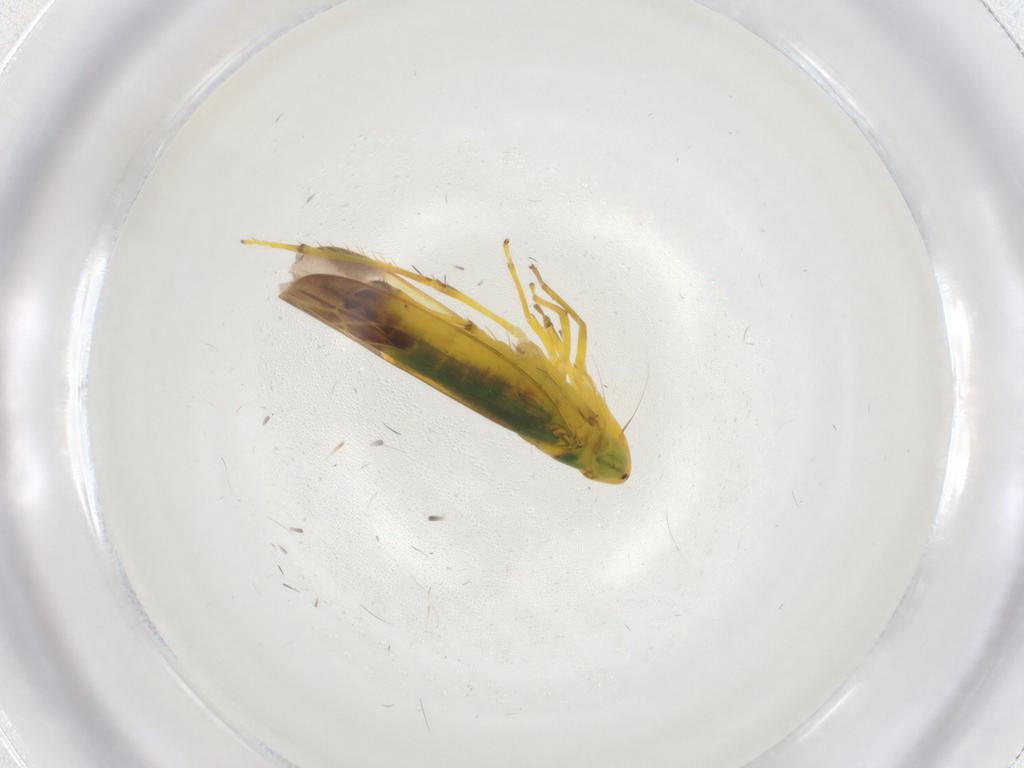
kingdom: Animalia
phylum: Arthropoda
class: Insecta
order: Hemiptera
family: Cicadellidae
